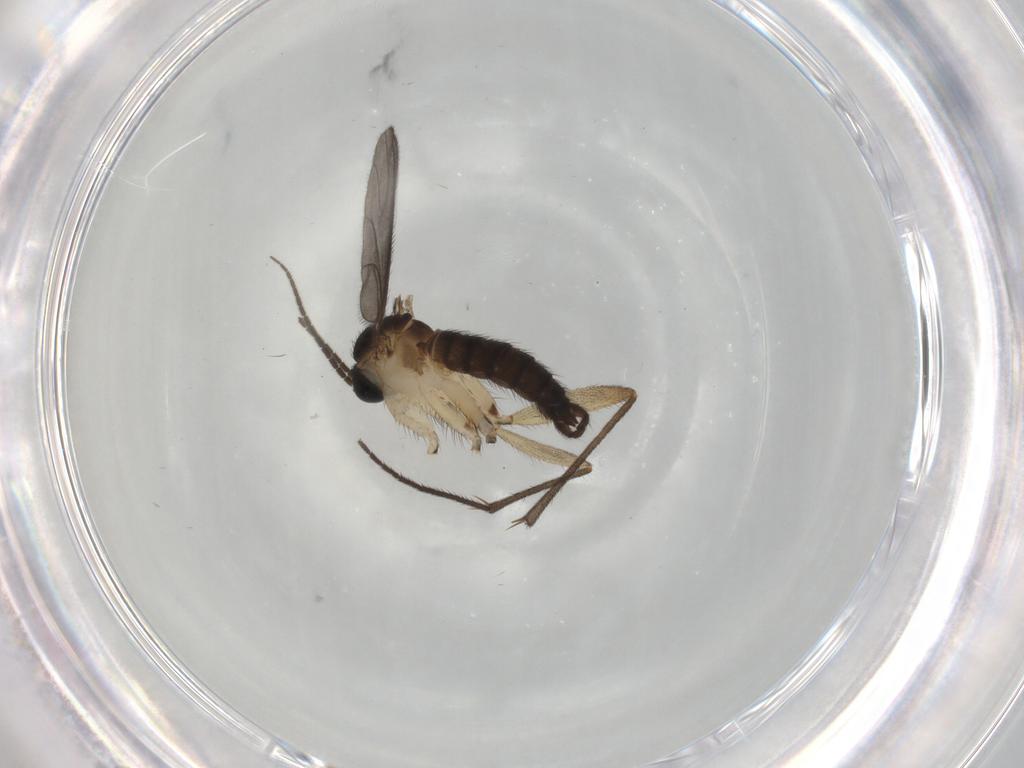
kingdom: Animalia
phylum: Arthropoda
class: Insecta
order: Diptera
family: Sciaridae
